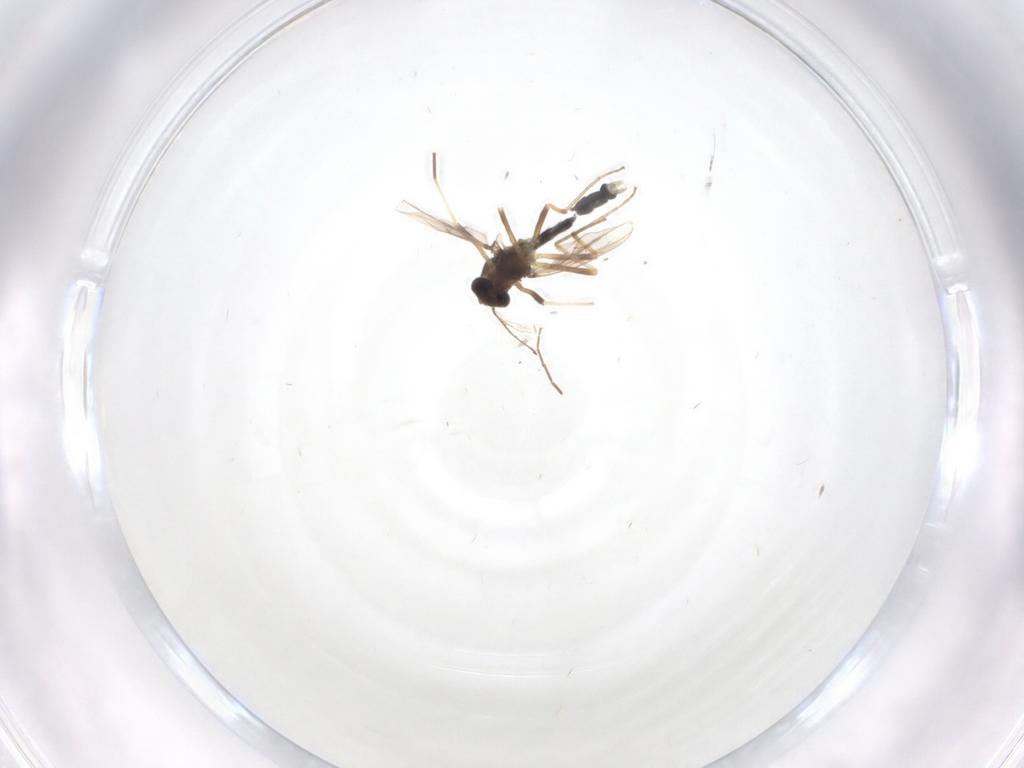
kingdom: Animalia
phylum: Arthropoda
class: Insecta
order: Diptera
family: Chironomidae
